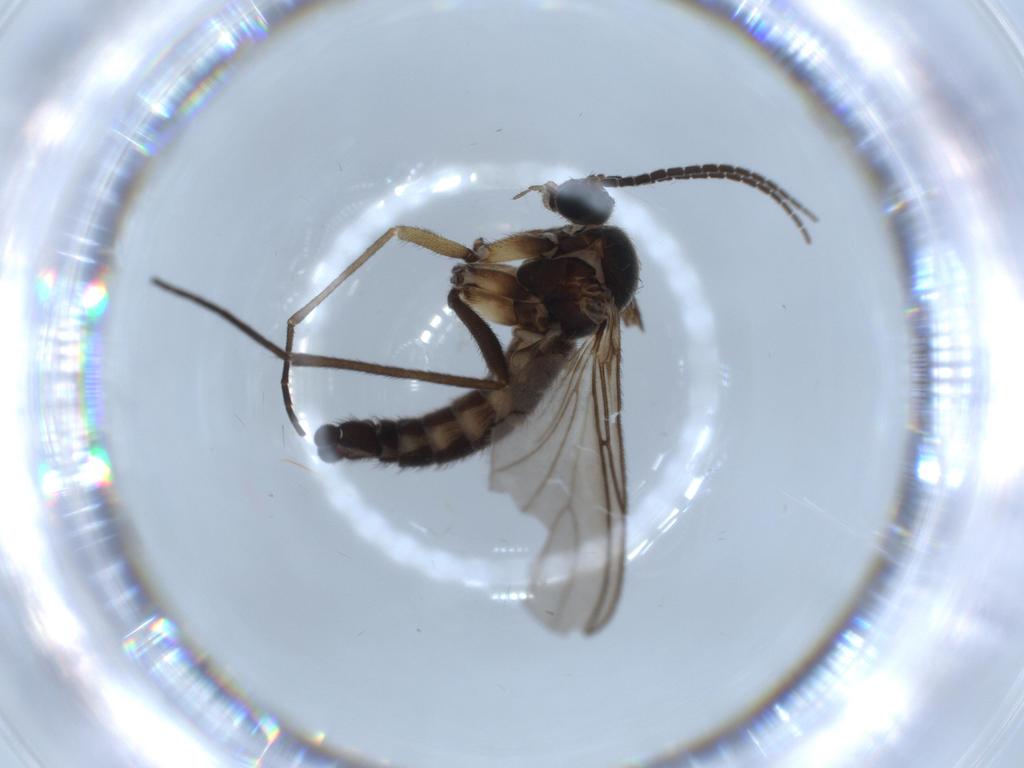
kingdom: Animalia
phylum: Arthropoda
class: Insecta
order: Diptera
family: Sciaridae
